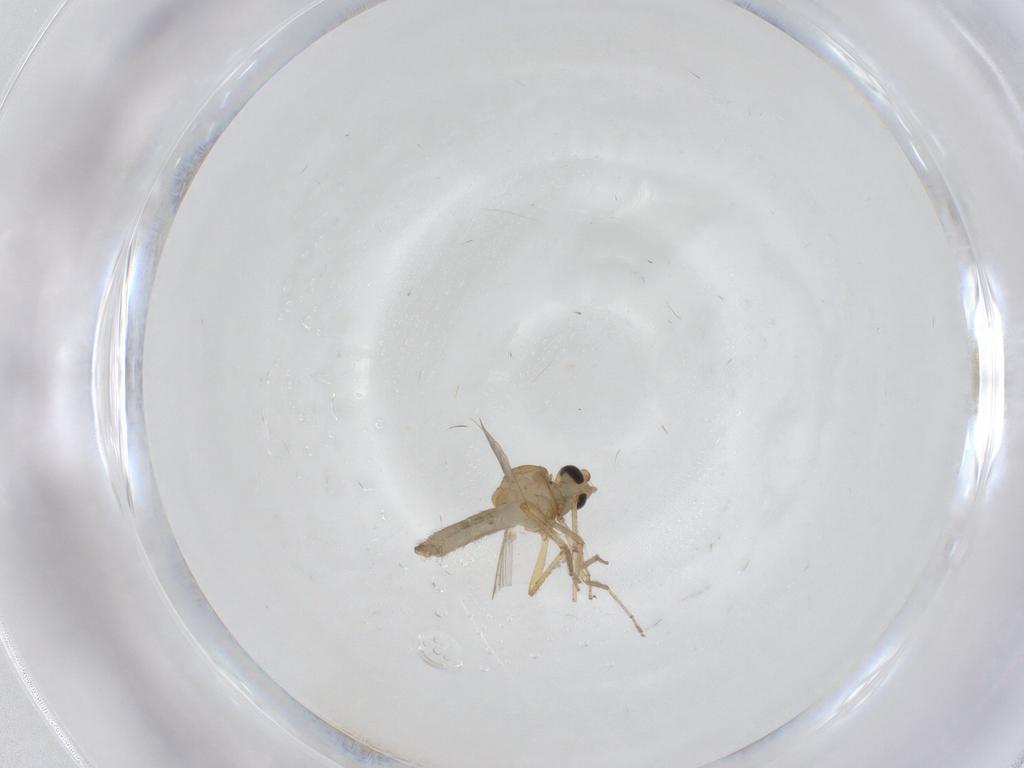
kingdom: Animalia
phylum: Arthropoda
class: Insecta
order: Diptera
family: Ceratopogonidae
